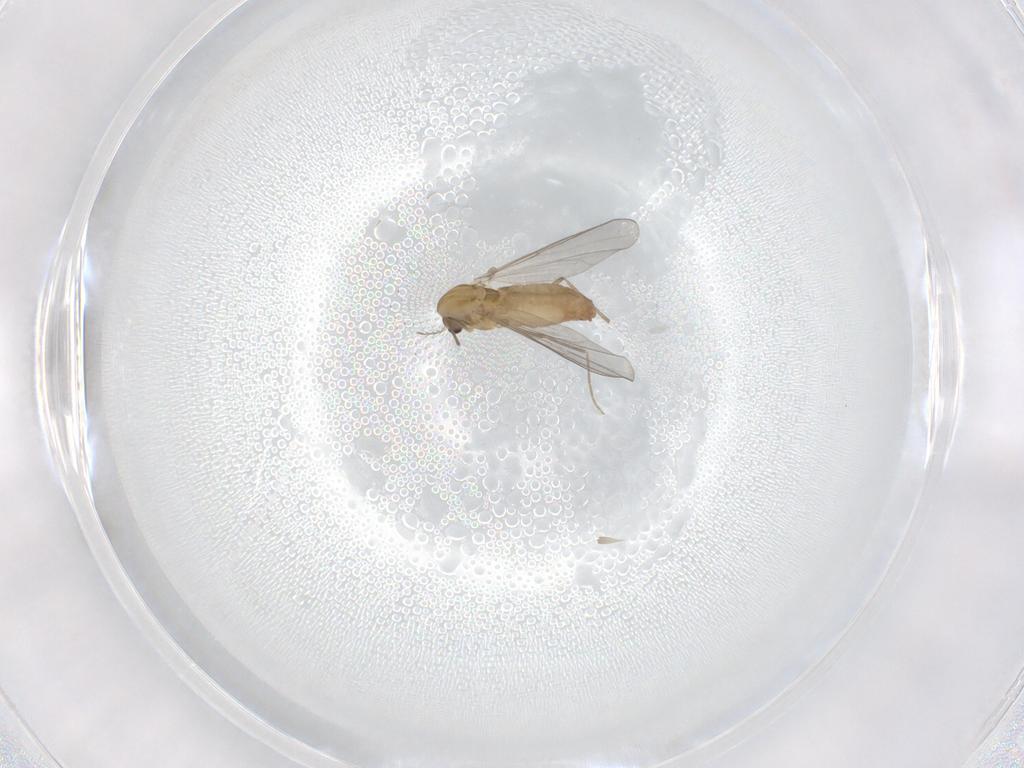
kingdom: Animalia
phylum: Arthropoda
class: Insecta
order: Diptera
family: Chironomidae
